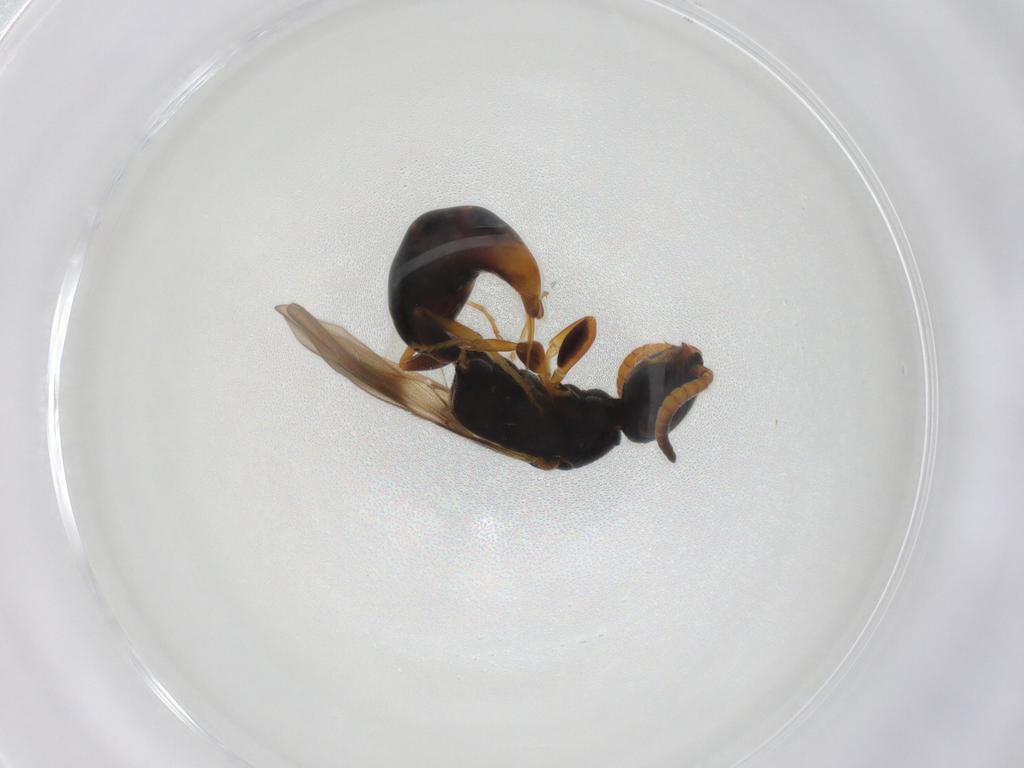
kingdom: Animalia
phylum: Arthropoda
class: Insecta
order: Hymenoptera
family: Bethylidae
